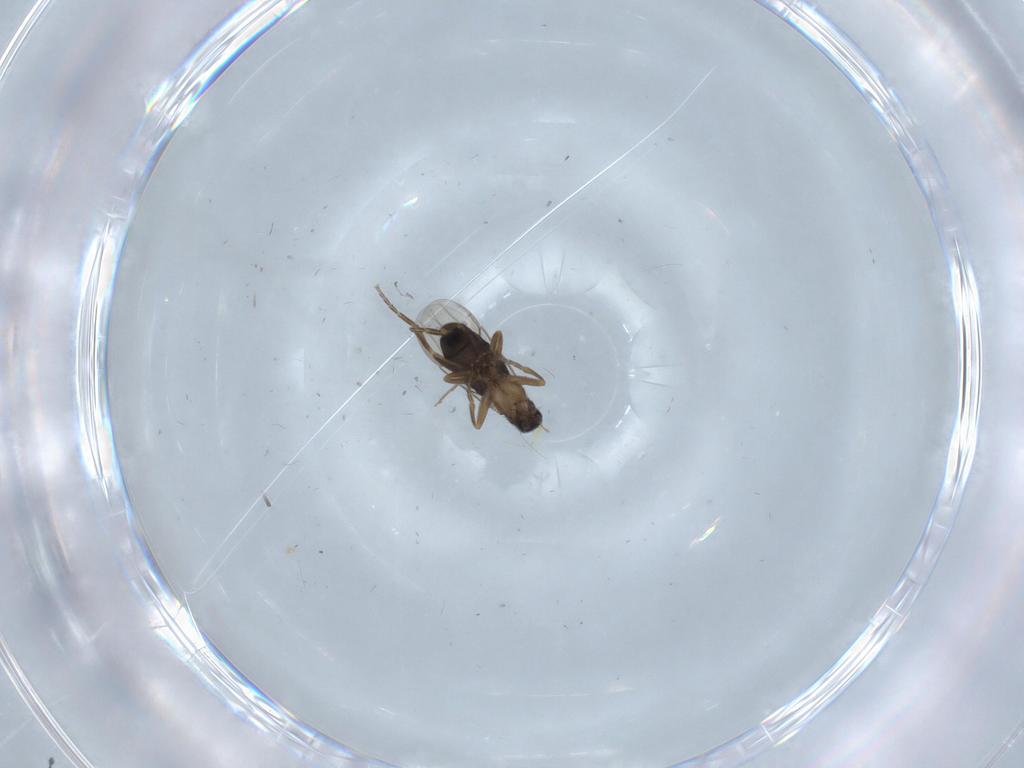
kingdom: Animalia
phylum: Arthropoda
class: Insecta
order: Diptera
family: Phoridae
